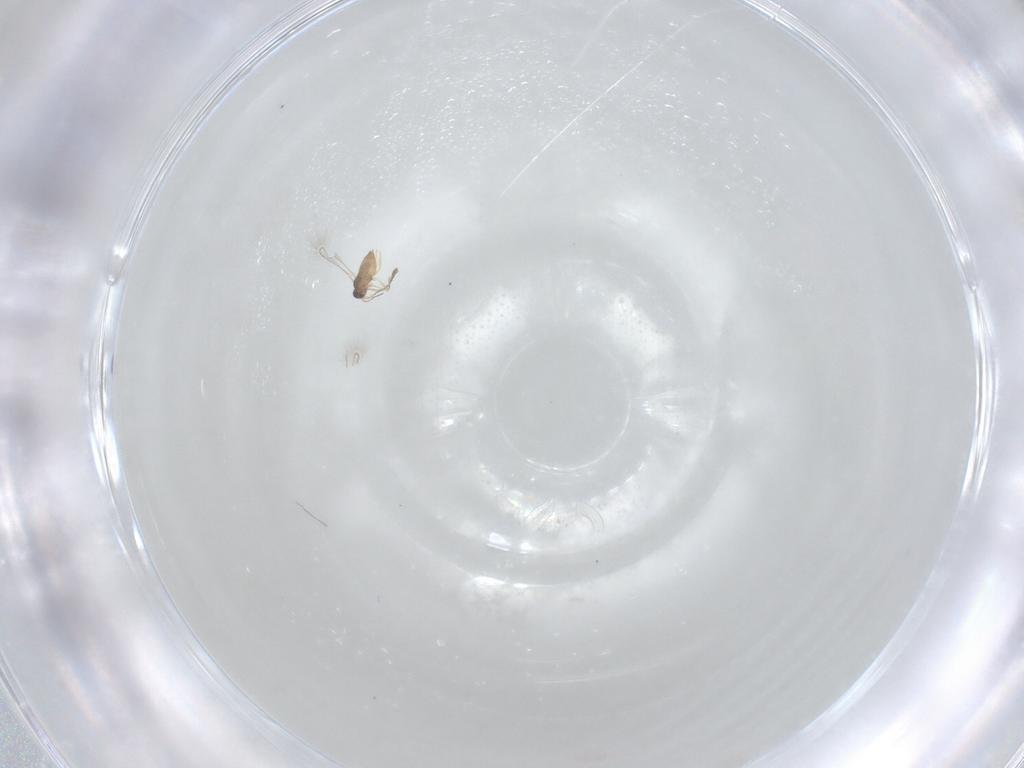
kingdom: Animalia
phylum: Arthropoda
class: Insecta
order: Hymenoptera
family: Mymaridae
